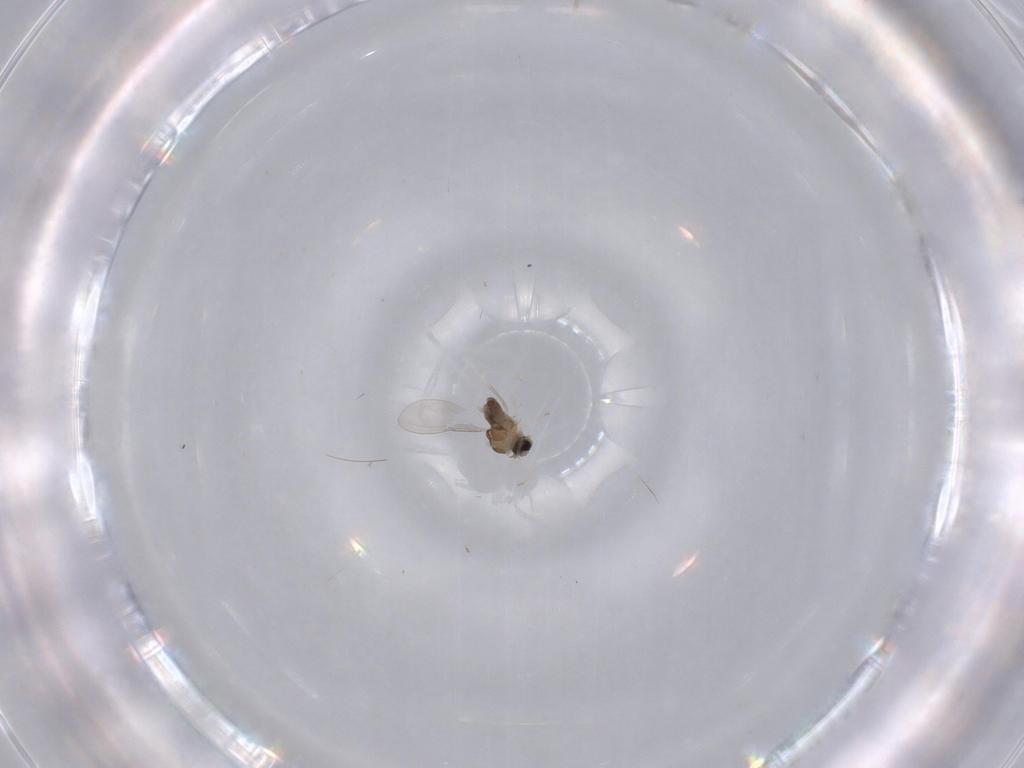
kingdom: Animalia
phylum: Arthropoda
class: Insecta
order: Diptera
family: Cecidomyiidae
